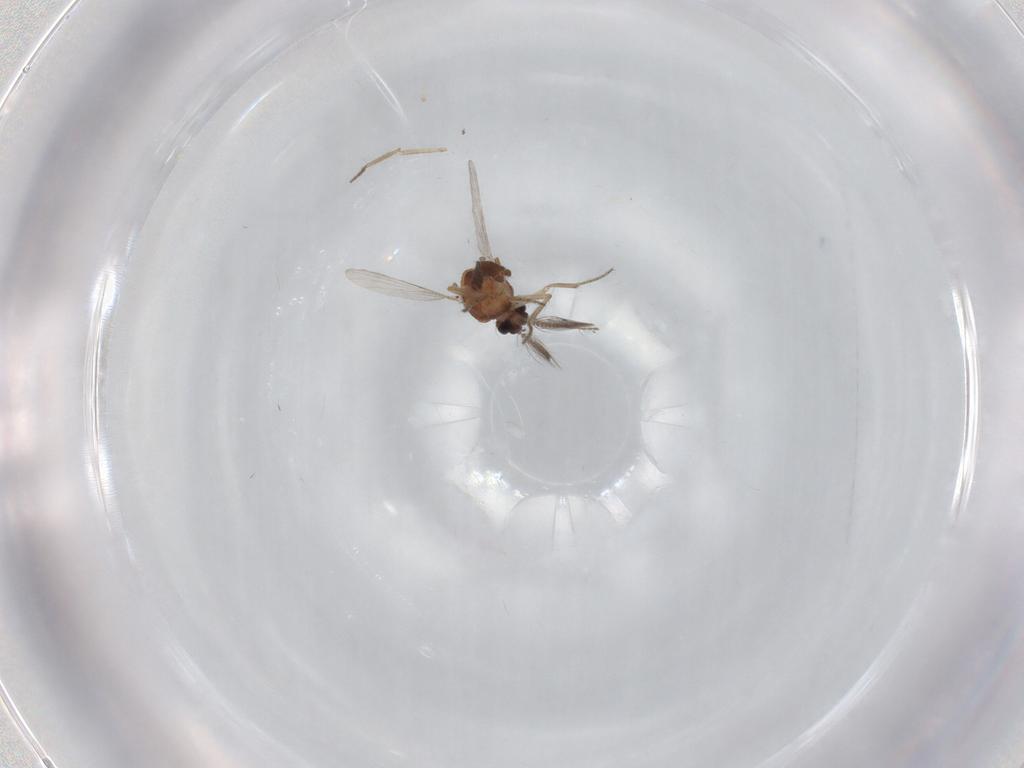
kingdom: Animalia
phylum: Arthropoda
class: Insecta
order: Diptera
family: Ceratopogonidae
